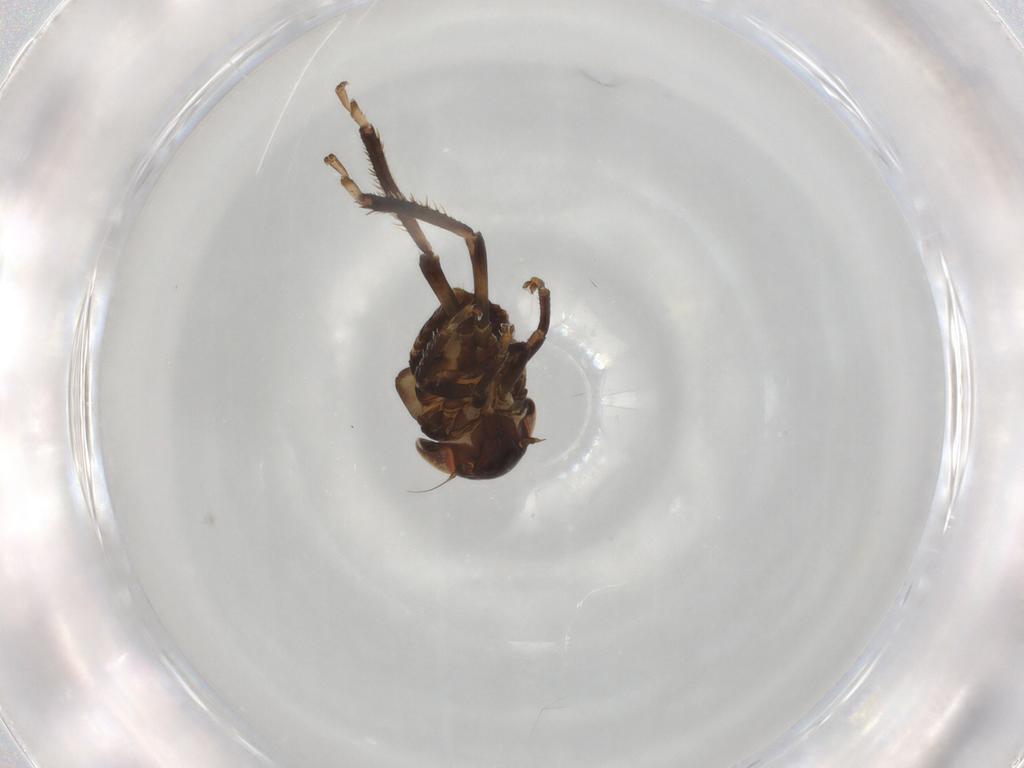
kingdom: Animalia
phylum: Arthropoda
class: Insecta
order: Hemiptera
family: Cicadellidae
